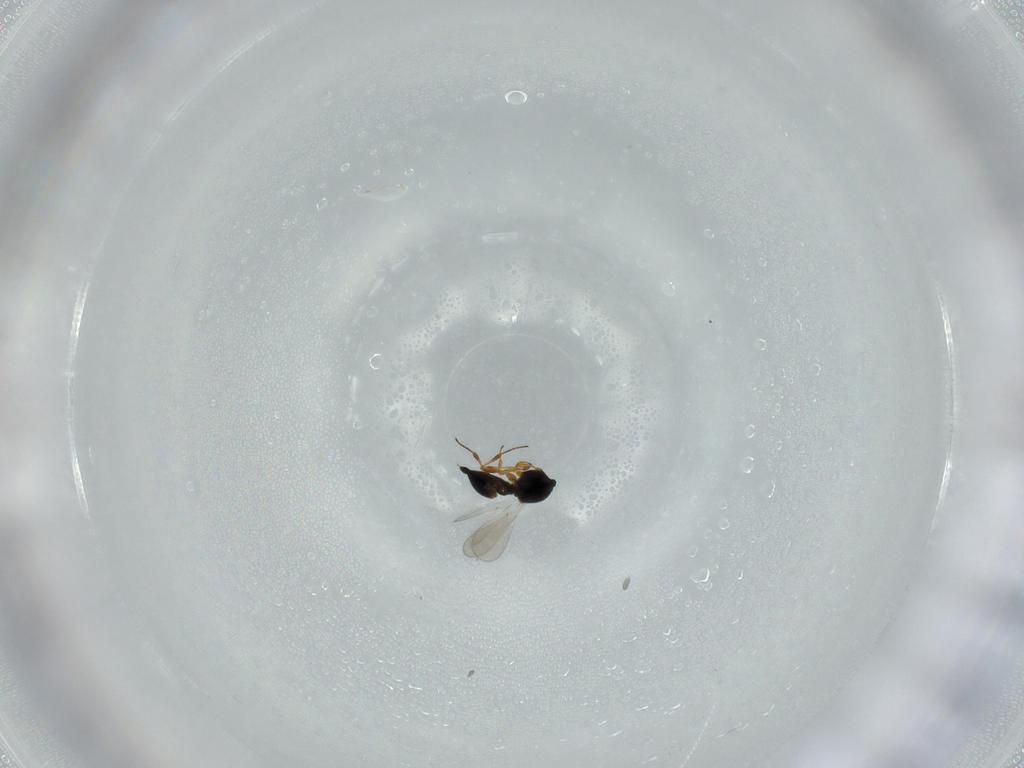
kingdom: Animalia
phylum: Arthropoda
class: Insecta
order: Hymenoptera
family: Platygastridae
